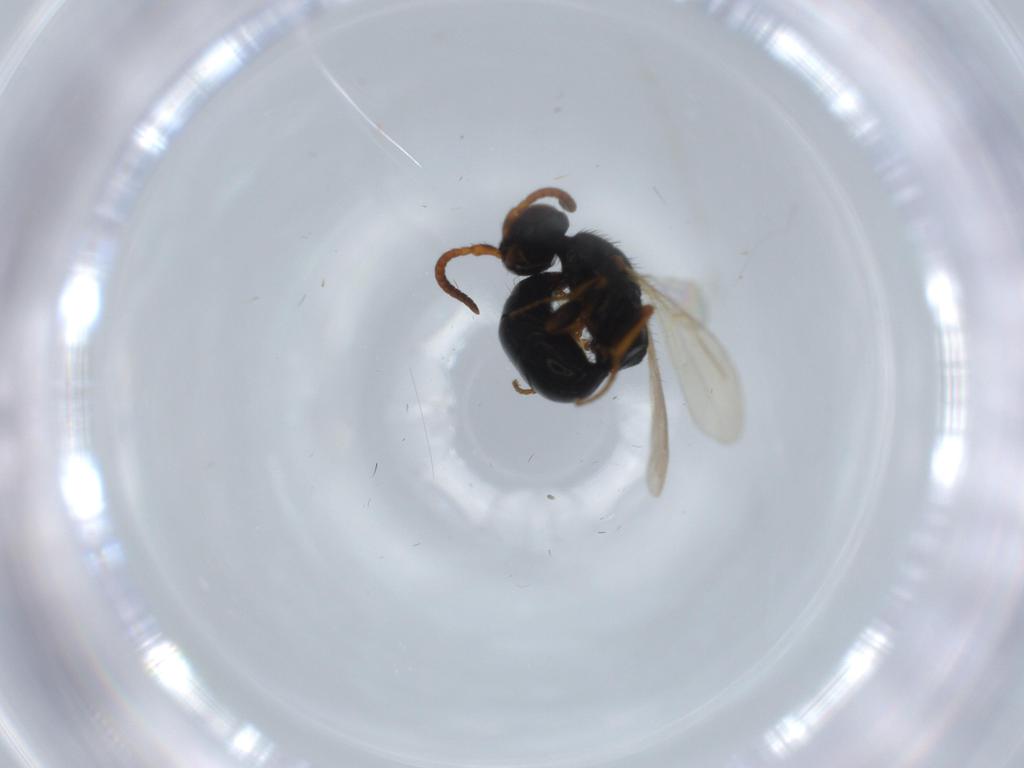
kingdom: Animalia
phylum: Arthropoda
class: Insecta
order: Hymenoptera
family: Bethylidae
